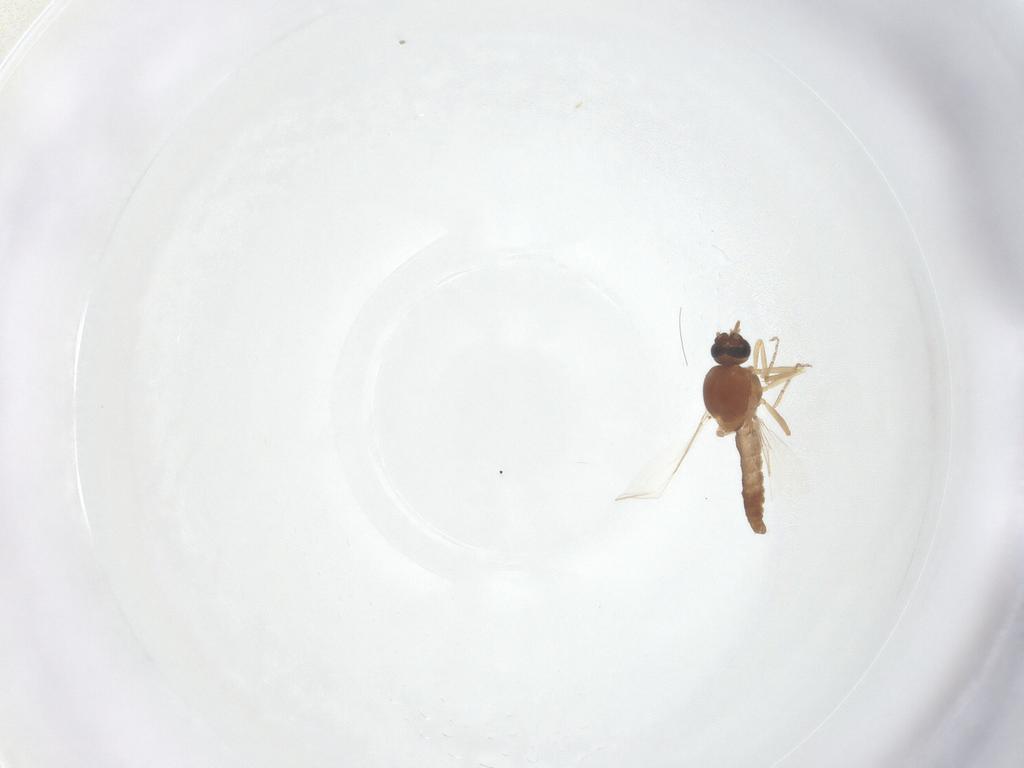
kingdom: Animalia
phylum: Arthropoda
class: Insecta
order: Diptera
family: Ceratopogonidae
